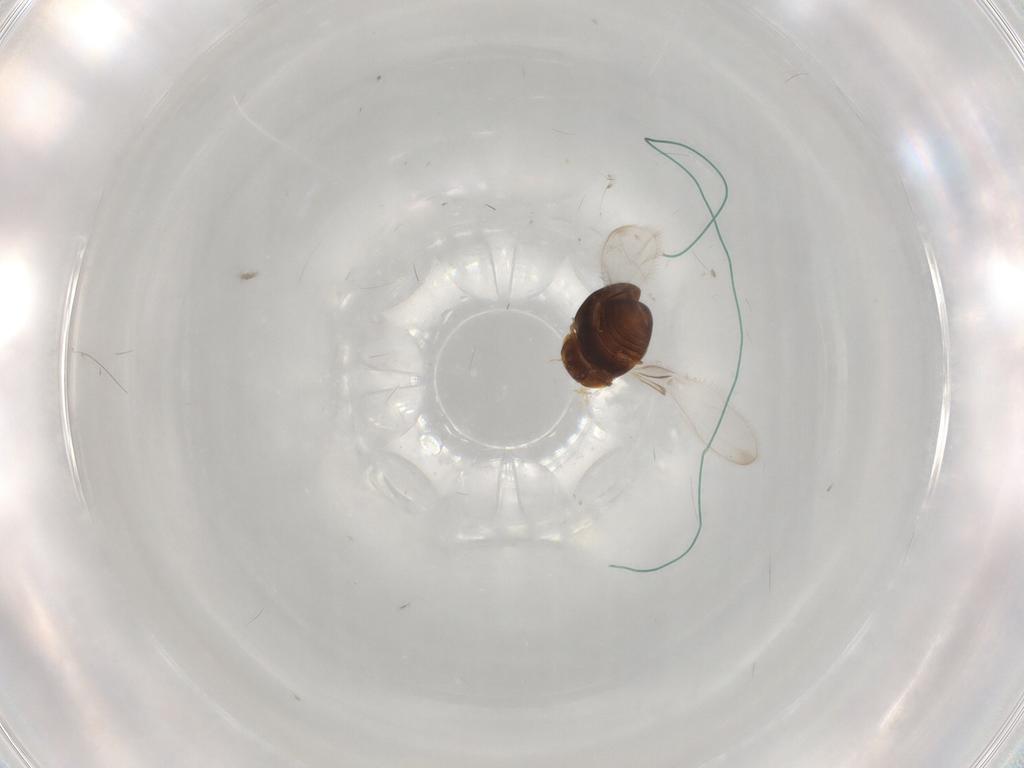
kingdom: Animalia
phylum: Arthropoda
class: Insecta
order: Coleoptera
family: Corylophidae
